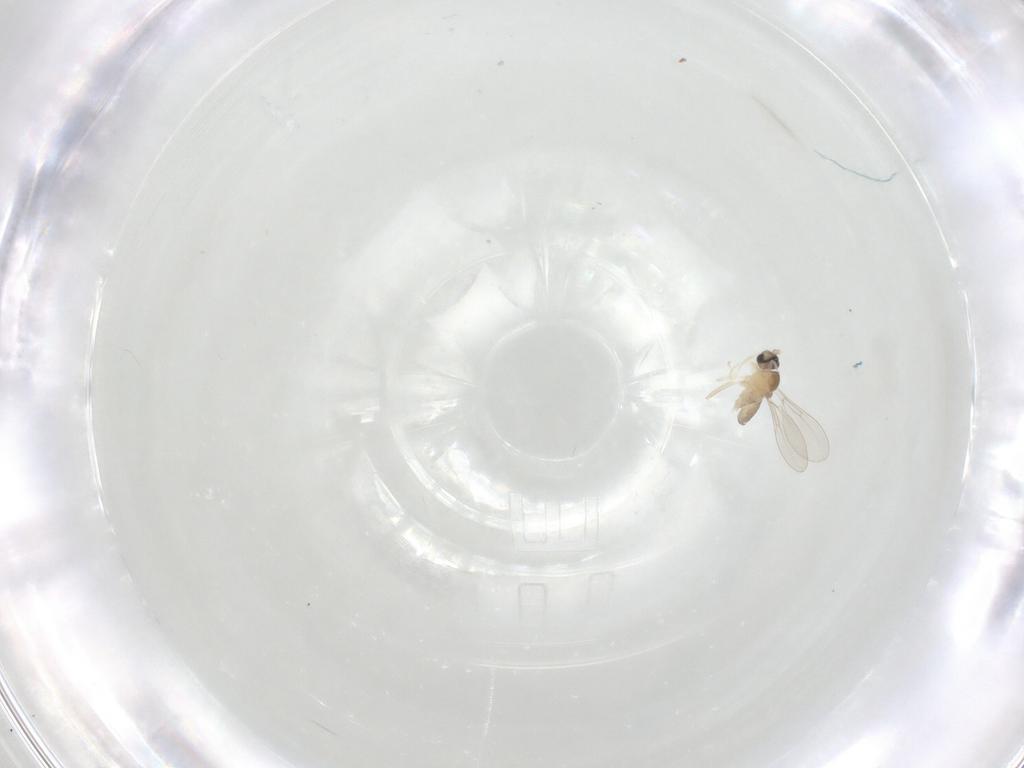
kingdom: Animalia
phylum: Arthropoda
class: Insecta
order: Diptera
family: Cecidomyiidae
